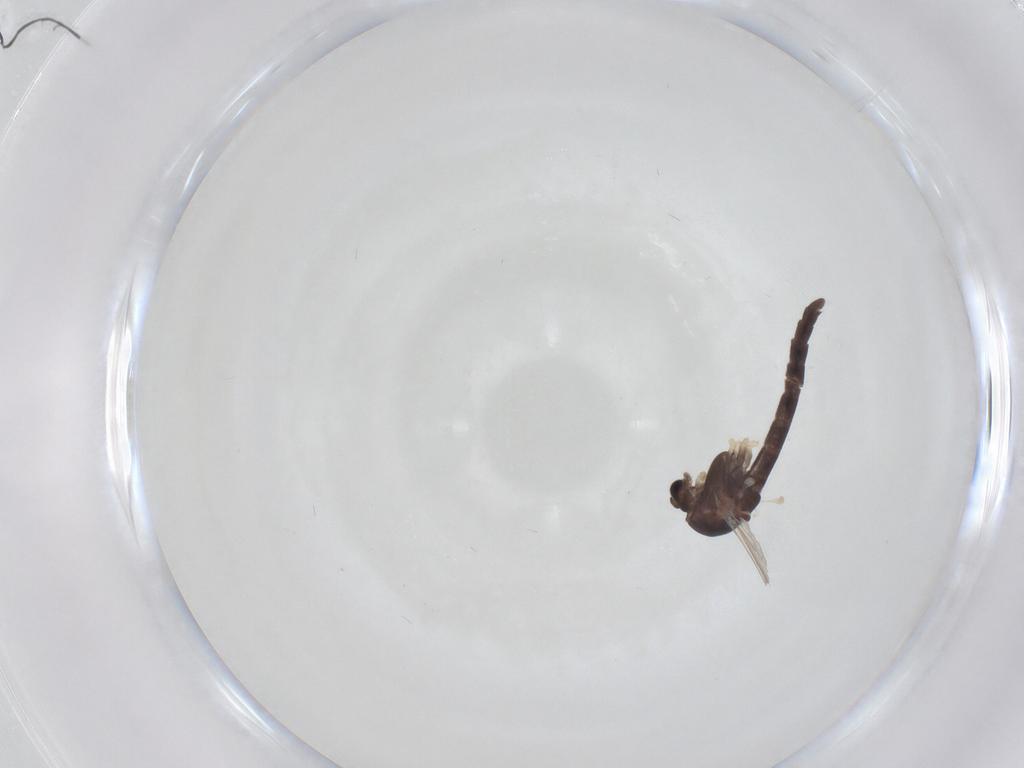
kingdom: Animalia
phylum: Arthropoda
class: Insecta
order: Diptera
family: Chironomidae
